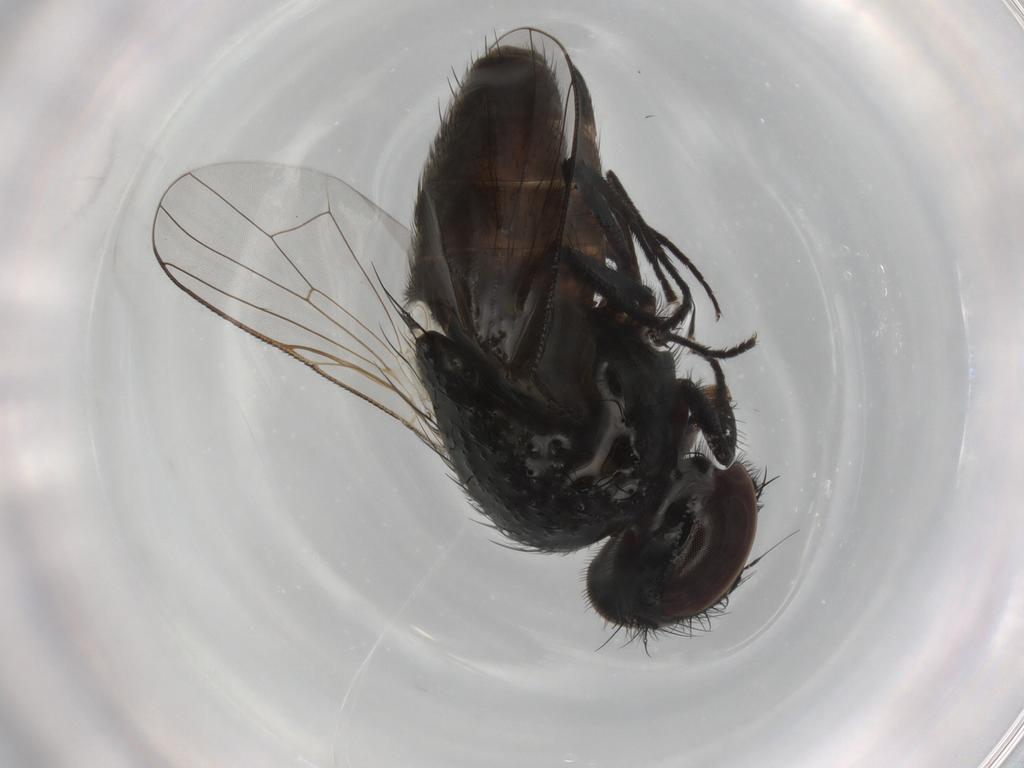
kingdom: Animalia
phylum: Arthropoda
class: Insecta
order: Diptera
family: Muscidae
